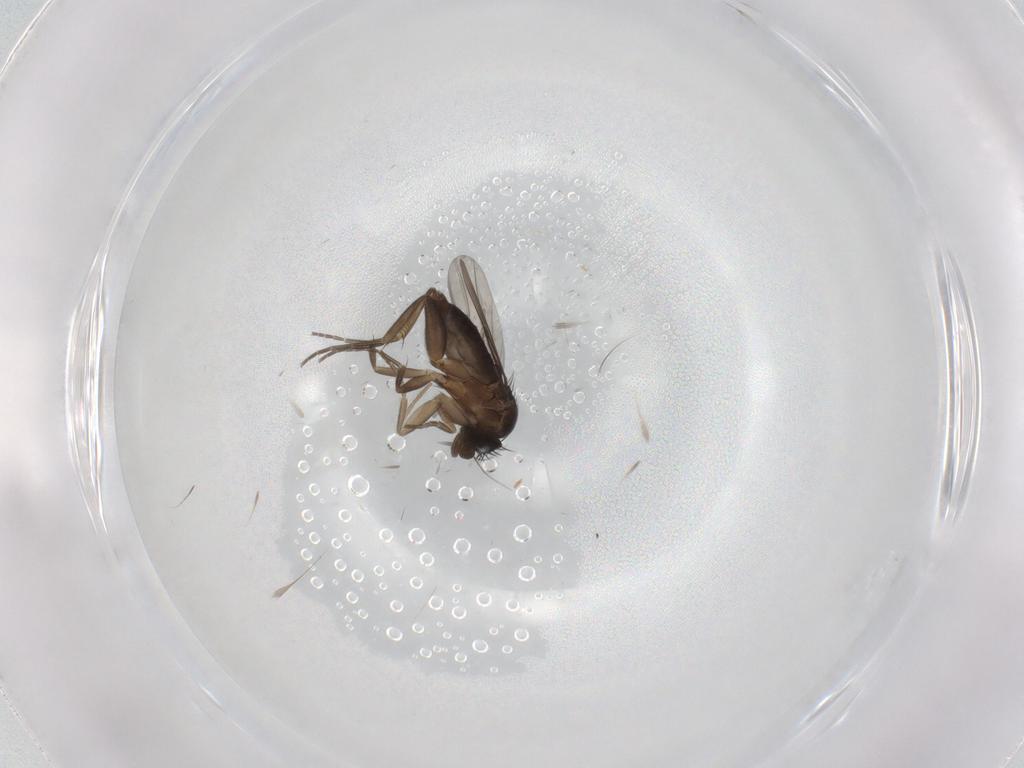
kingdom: Animalia
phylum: Arthropoda
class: Insecta
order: Diptera
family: Phoridae
